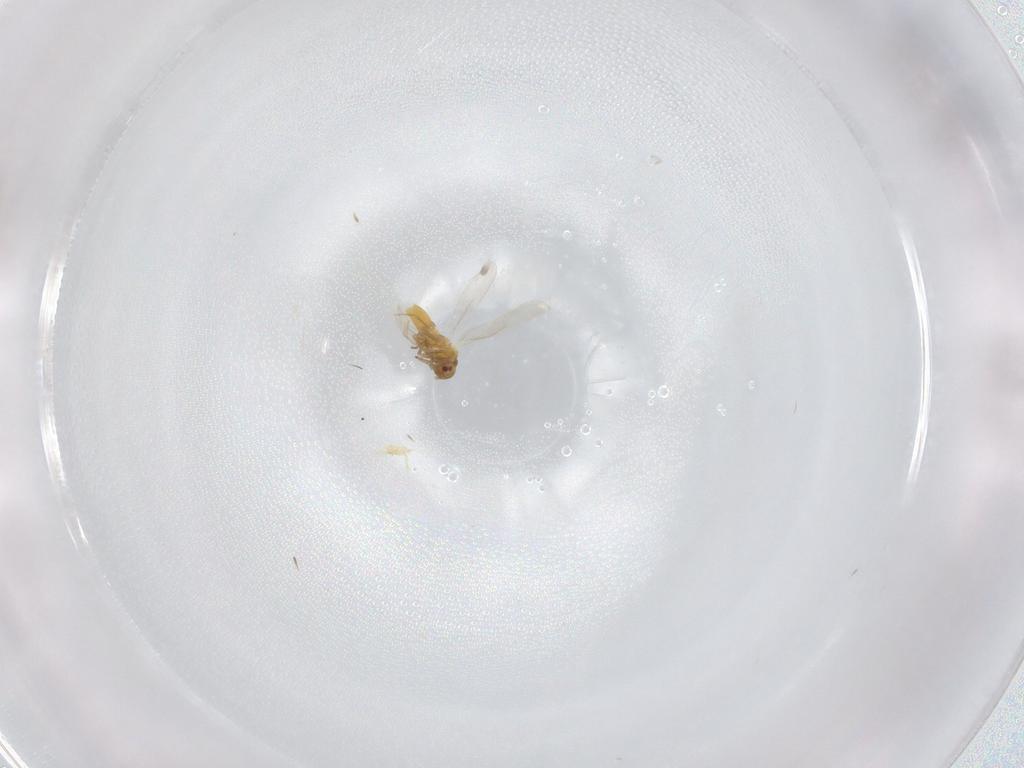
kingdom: Animalia
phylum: Arthropoda
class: Insecta
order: Hemiptera
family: Aleyrodidae
